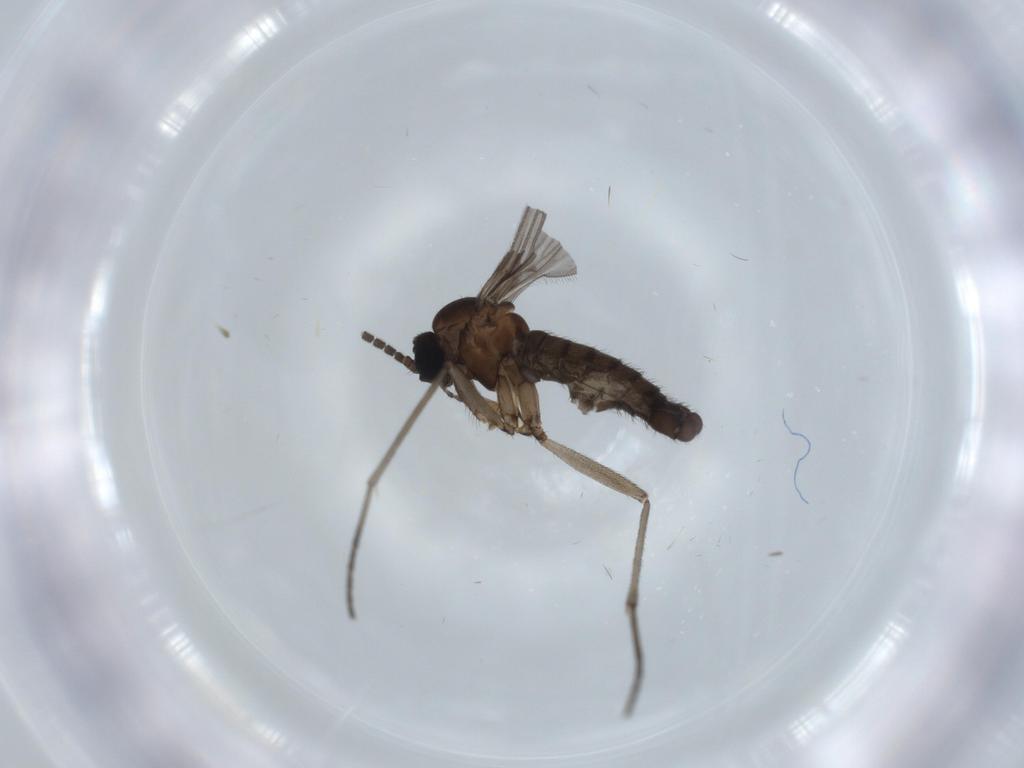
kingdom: Animalia
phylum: Arthropoda
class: Insecta
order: Diptera
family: Sciaridae
